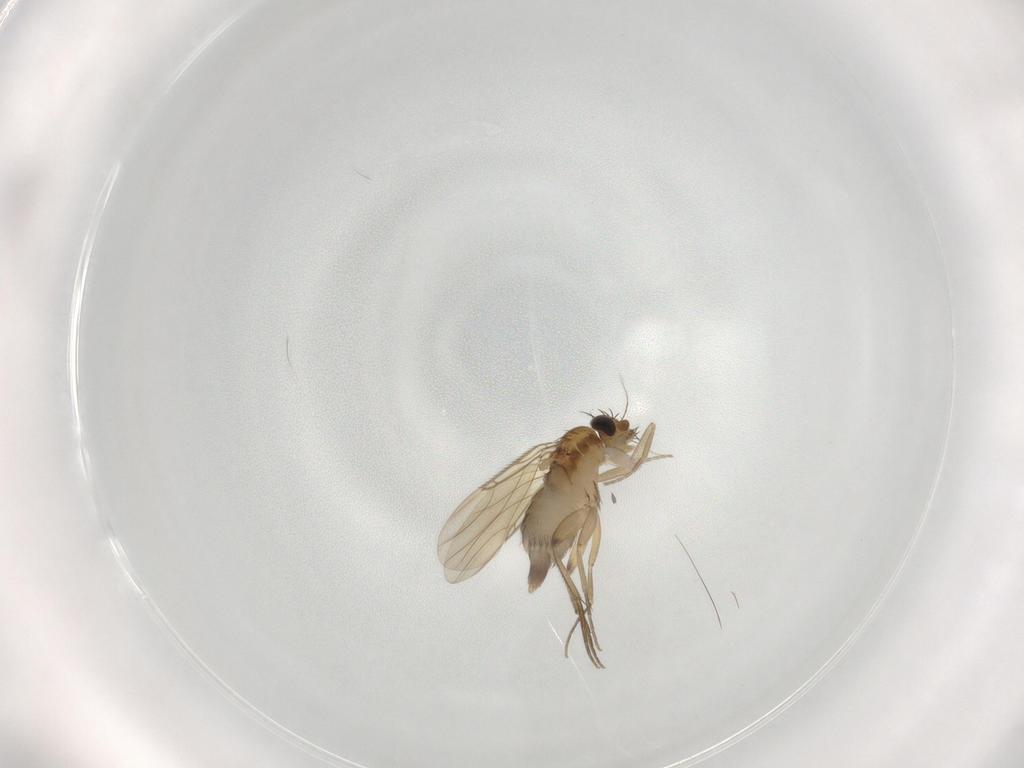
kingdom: Animalia
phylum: Arthropoda
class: Insecta
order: Diptera
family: Phoridae
